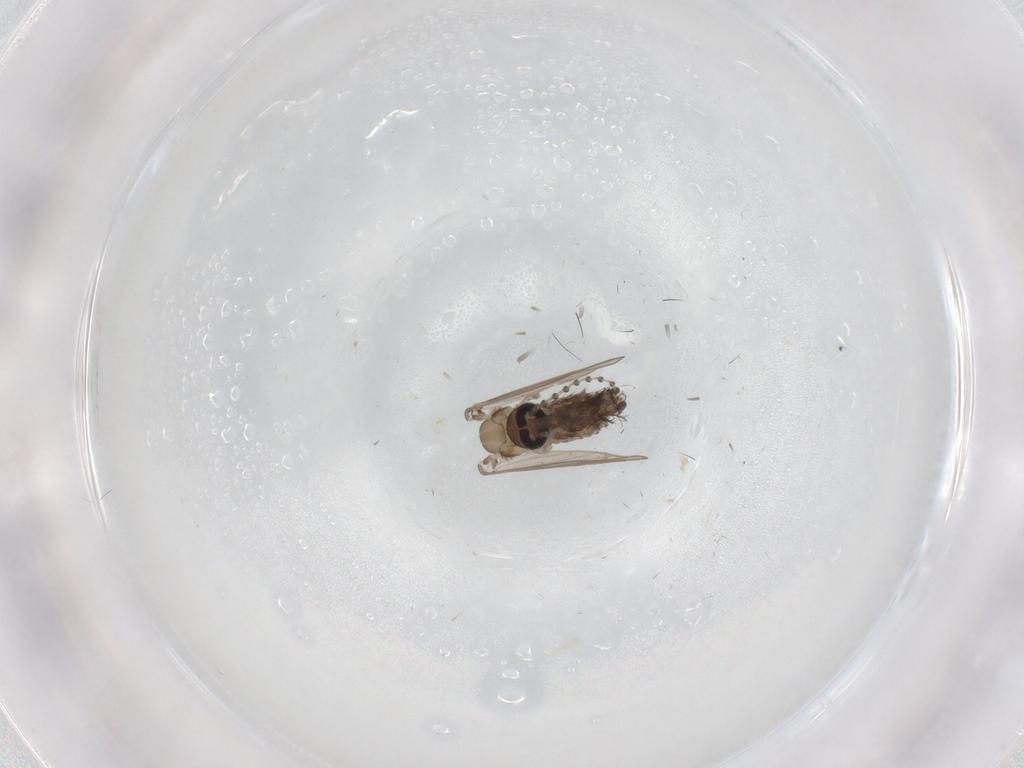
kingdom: Animalia
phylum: Arthropoda
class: Insecta
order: Diptera
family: Psychodidae
